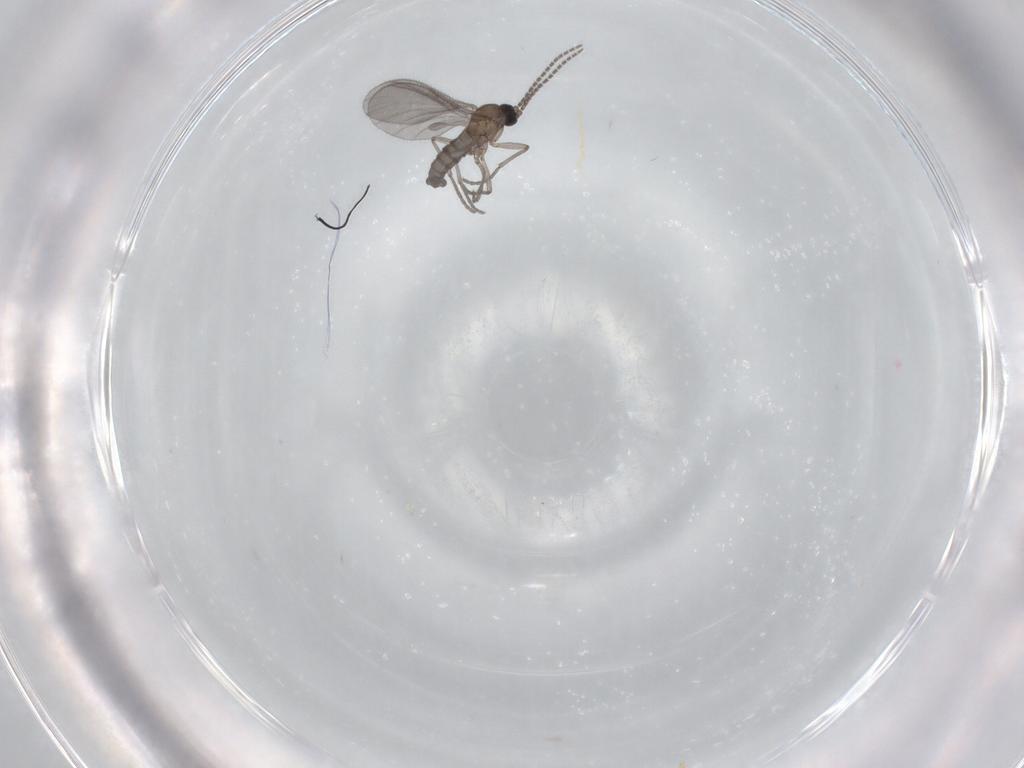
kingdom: Animalia
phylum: Arthropoda
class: Insecta
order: Diptera
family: Sciaridae
